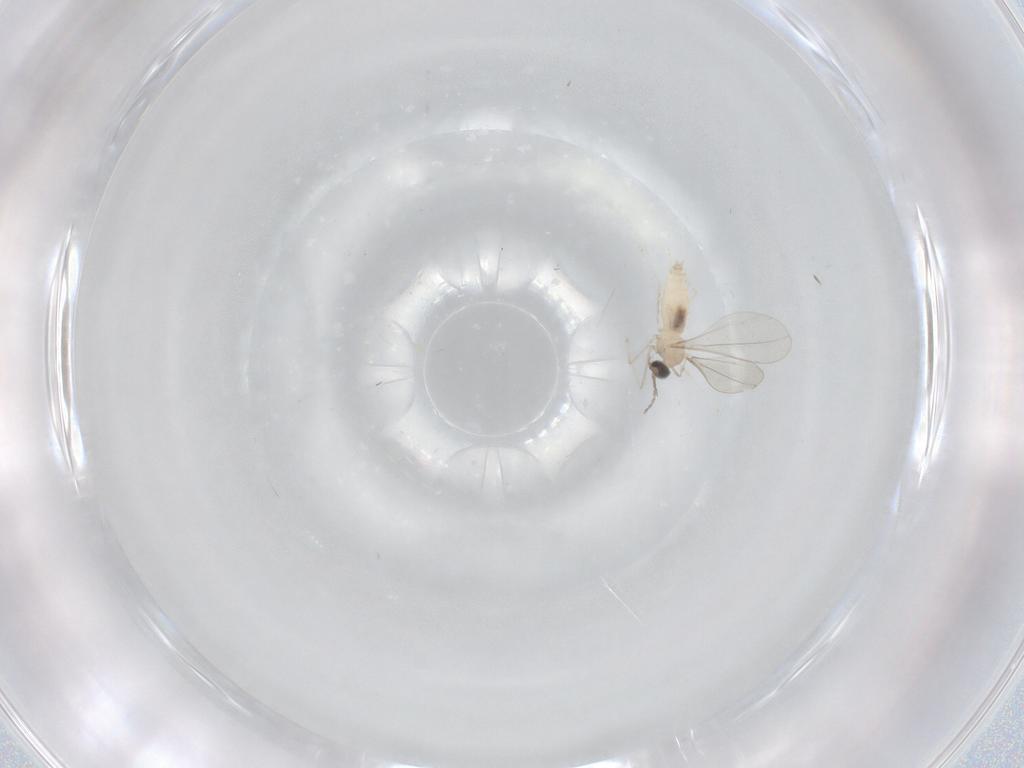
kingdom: Animalia
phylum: Arthropoda
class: Insecta
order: Diptera
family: Cecidomyiidae
